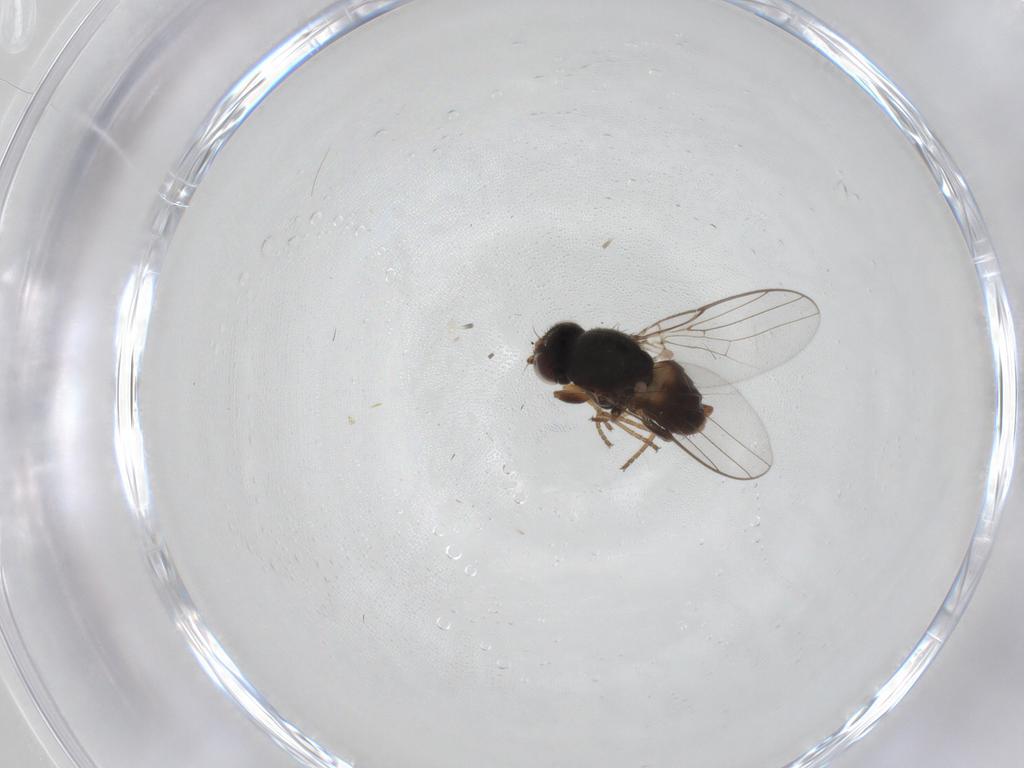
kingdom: Animalia
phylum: Arthropoda
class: Insecta
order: Diptera
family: Chloropidae
